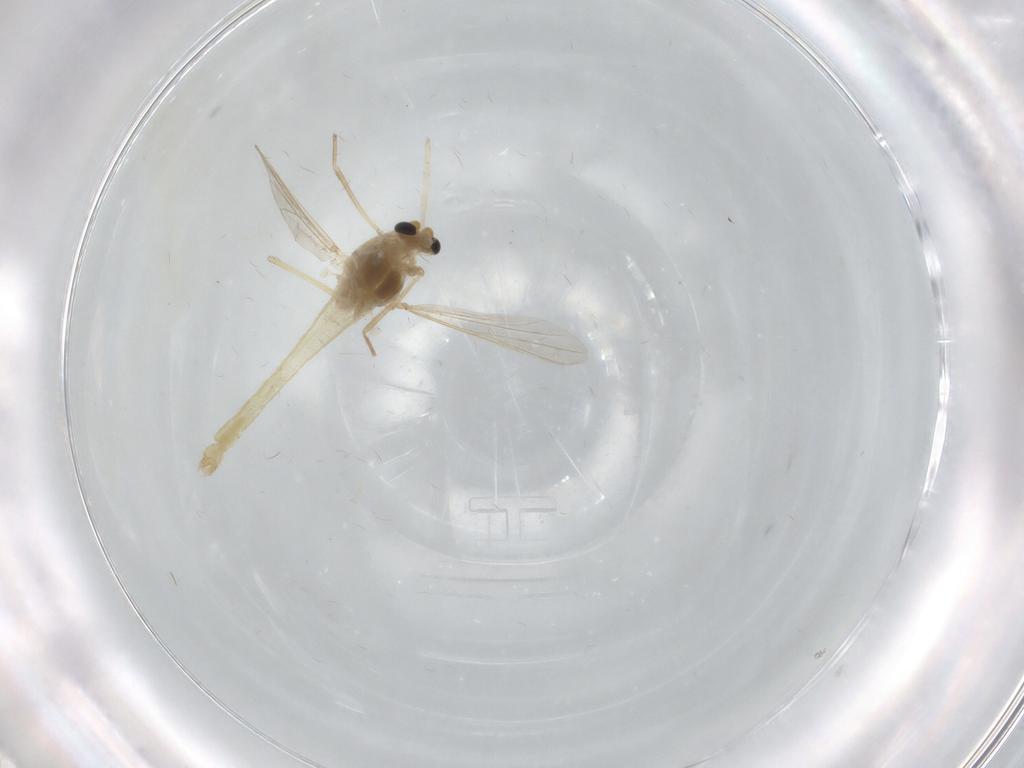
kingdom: Animalia
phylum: Arthropoda
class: Insecta
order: Diptera
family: Chironomidae
